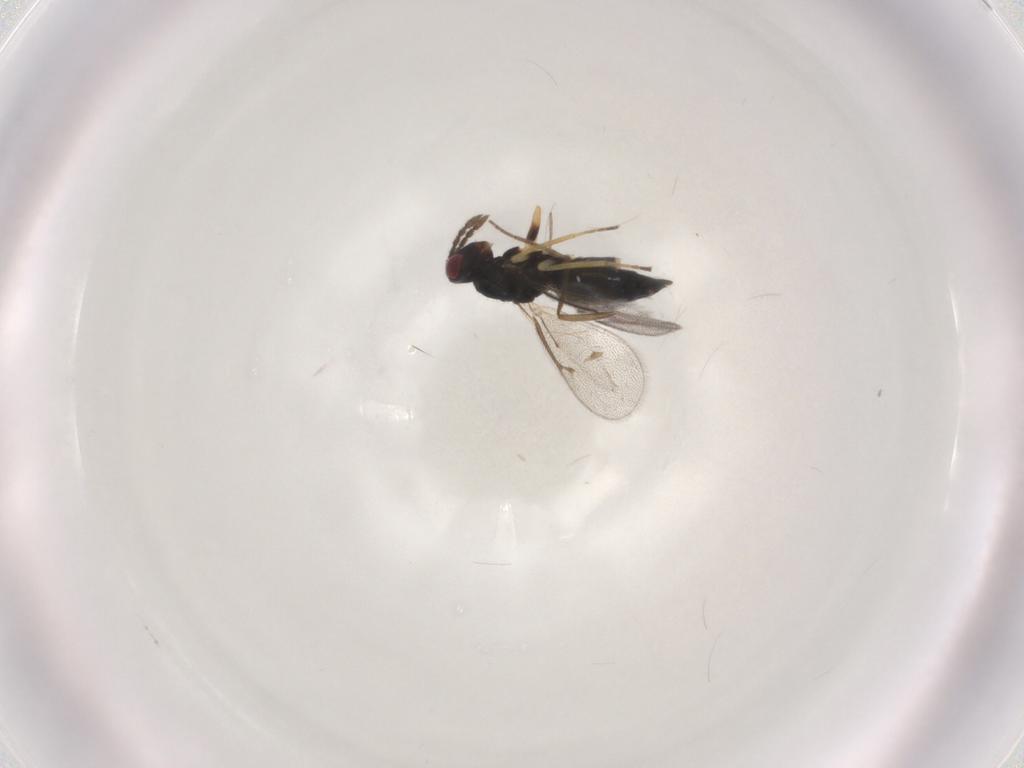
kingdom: Animalia
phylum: Arthropoda
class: Insecta
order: Hymenoptera
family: Eulophidae
